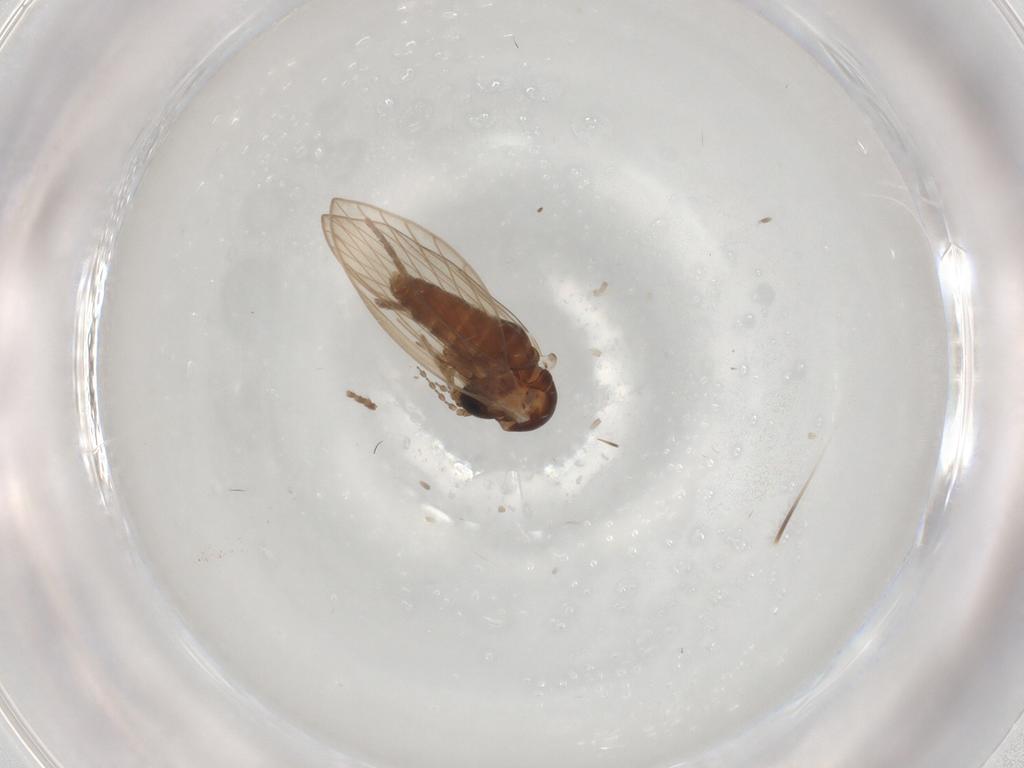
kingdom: Animalia
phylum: Arthropoda
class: Insecta
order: Diptera
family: Psychodidae
